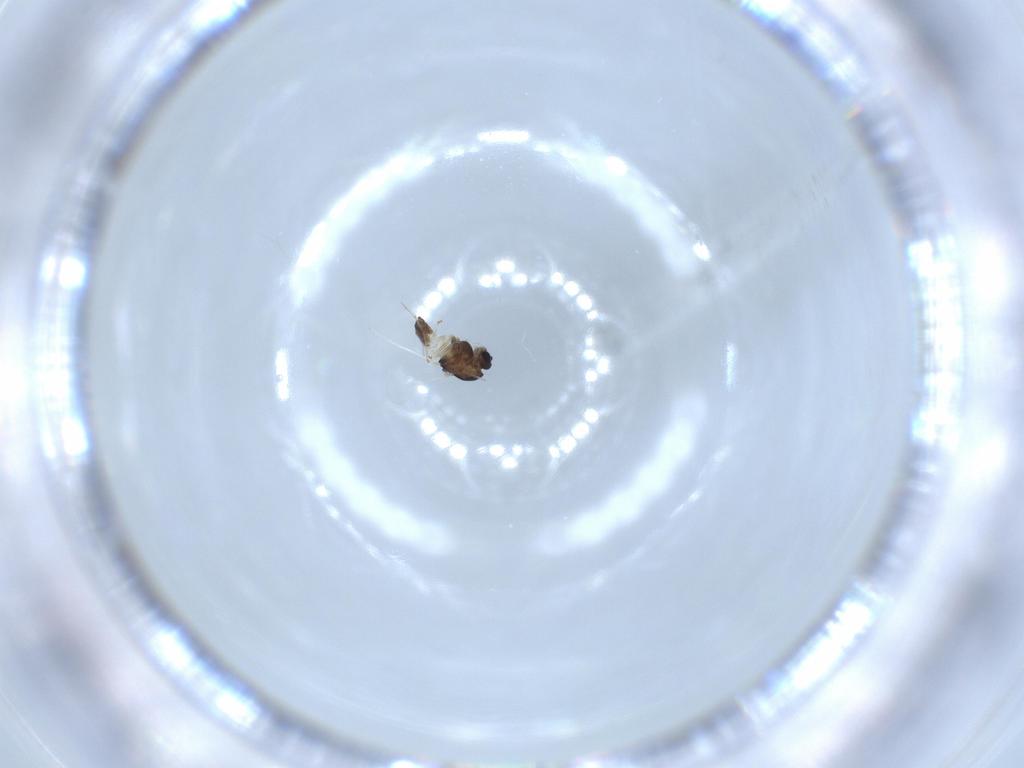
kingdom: Animalia
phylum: Arthropoda
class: Insecta
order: Diptera
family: Chironomidae
